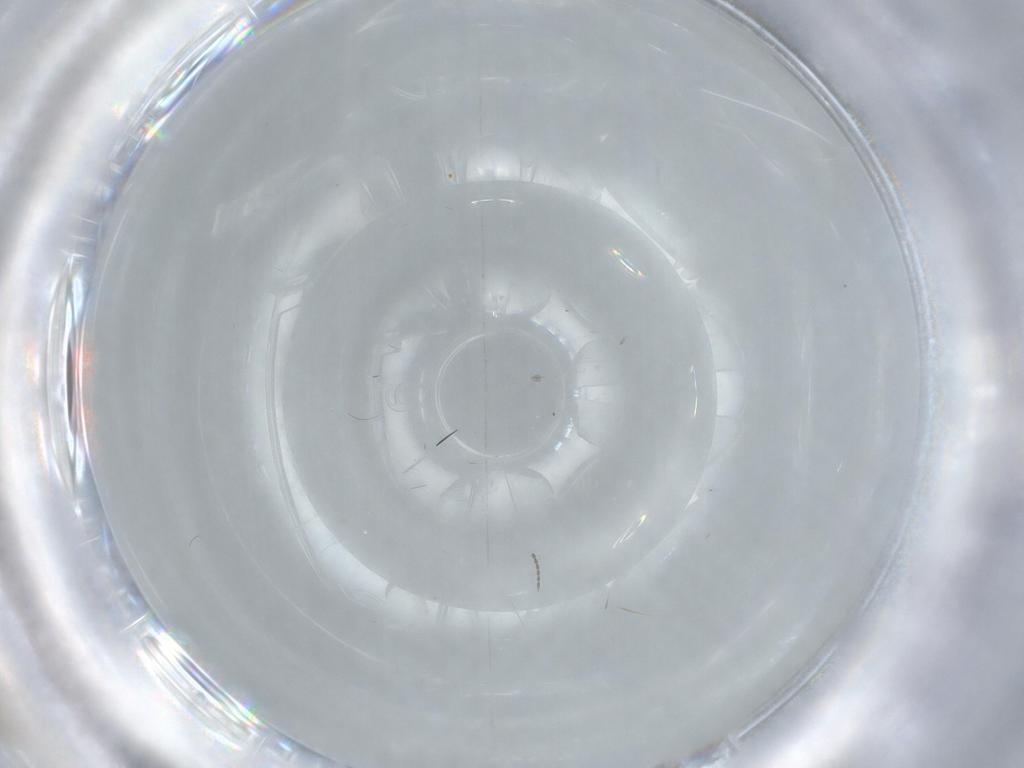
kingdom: Animalia
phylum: Arthropoda
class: Insecta
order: Diptera
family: Cecidomyiidae
